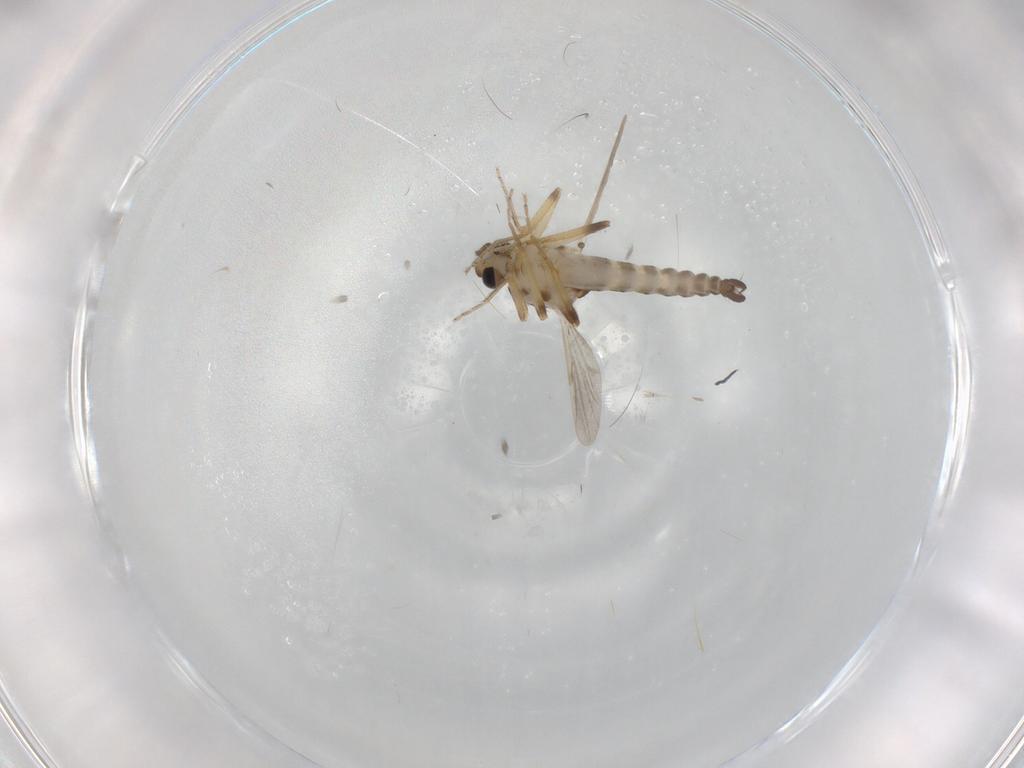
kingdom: Animalia
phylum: Arthropoda
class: Insecta
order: Diptera
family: Ceratopogonidae
